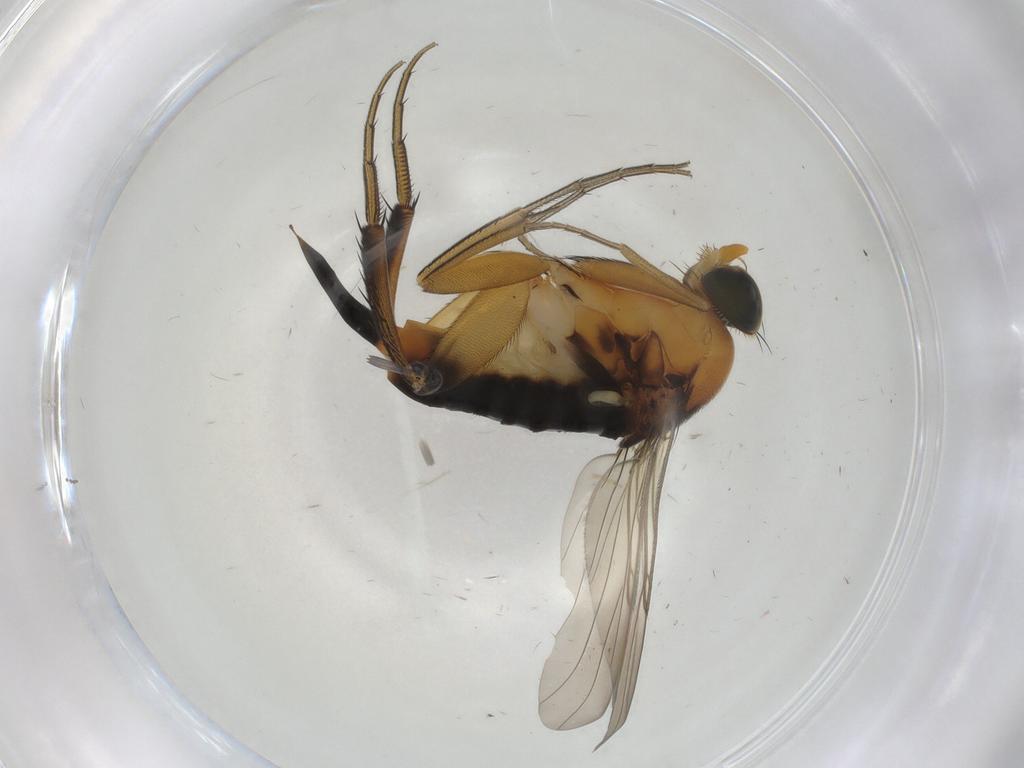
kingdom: Animalia
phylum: Arthropoda
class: Insecta
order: Diptera
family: Phoridae
